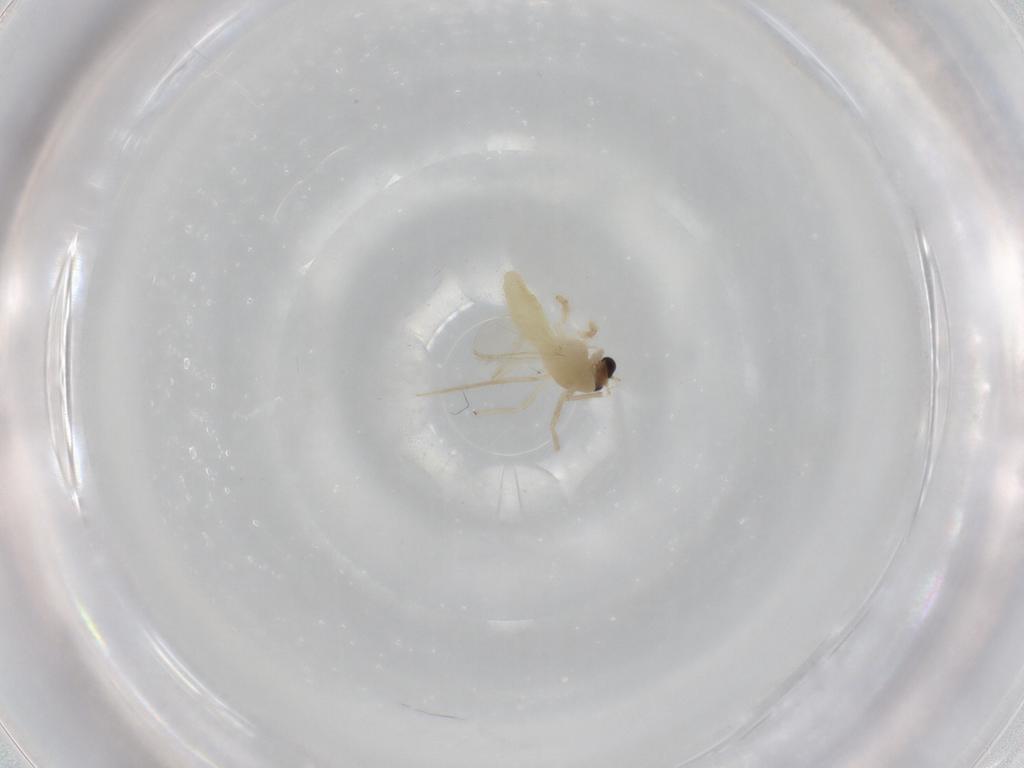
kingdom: Animalia
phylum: Arthropoda
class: Insecta
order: Diptera
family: Chironomidae
